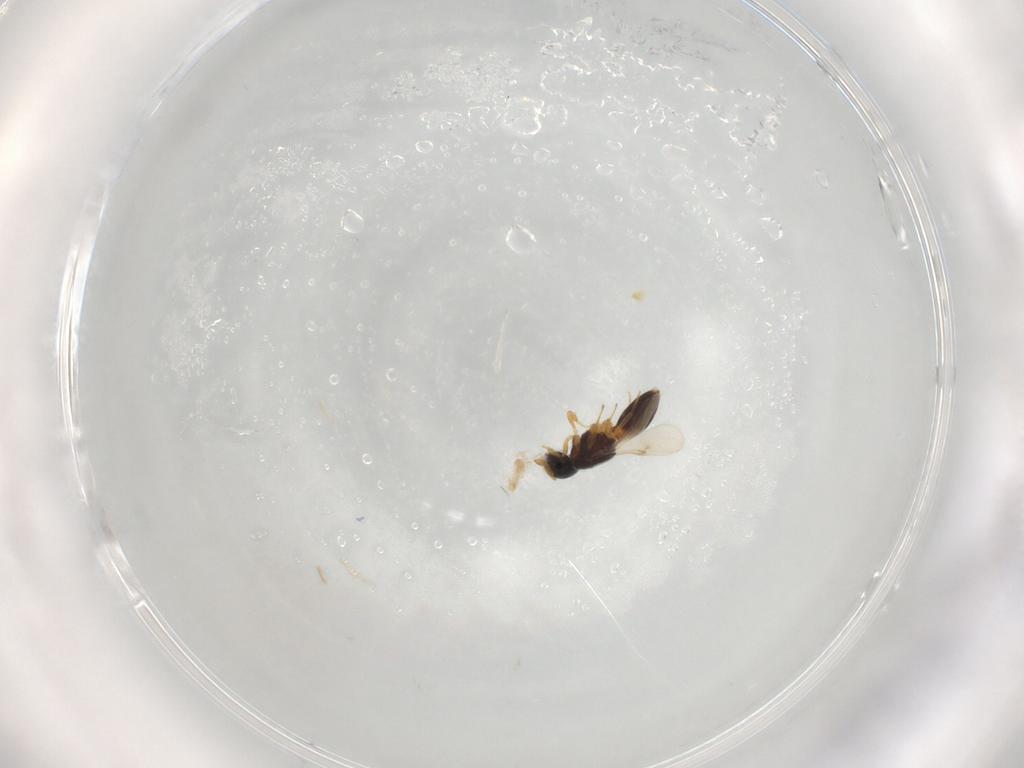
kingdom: Animalia
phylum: Arthropoda
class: Insecta
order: Hymenoptera
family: Scelionidae
